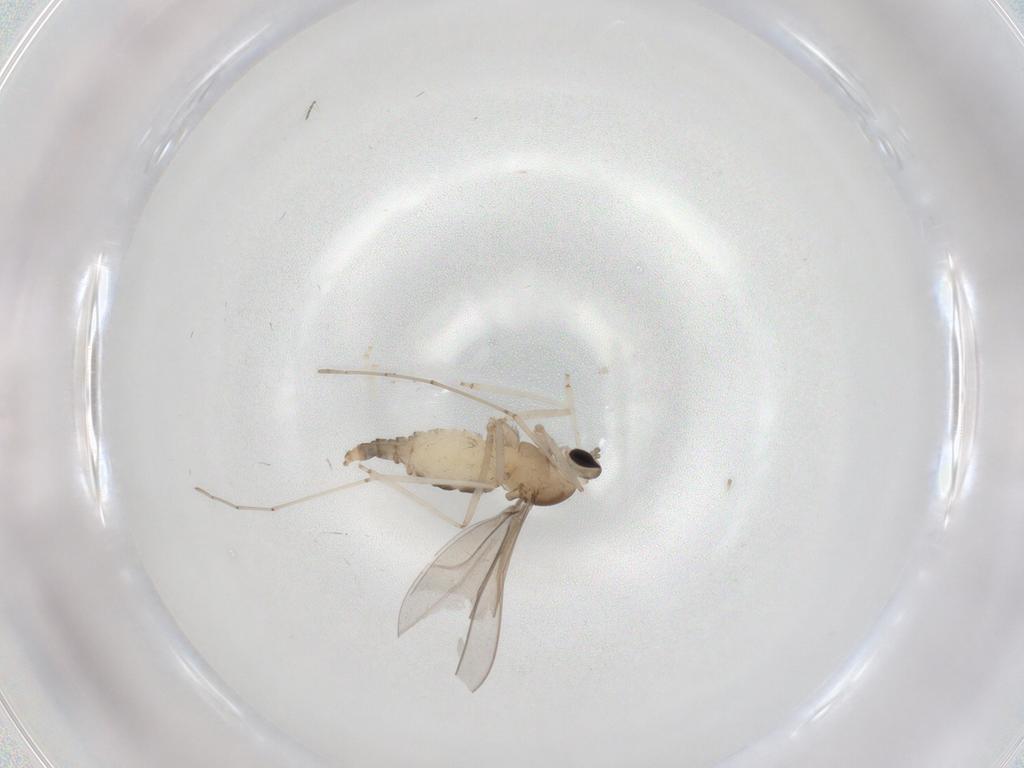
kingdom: Animalia
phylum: Arthropoda
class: Insecta
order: Diptera
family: Cecidomyiidae
